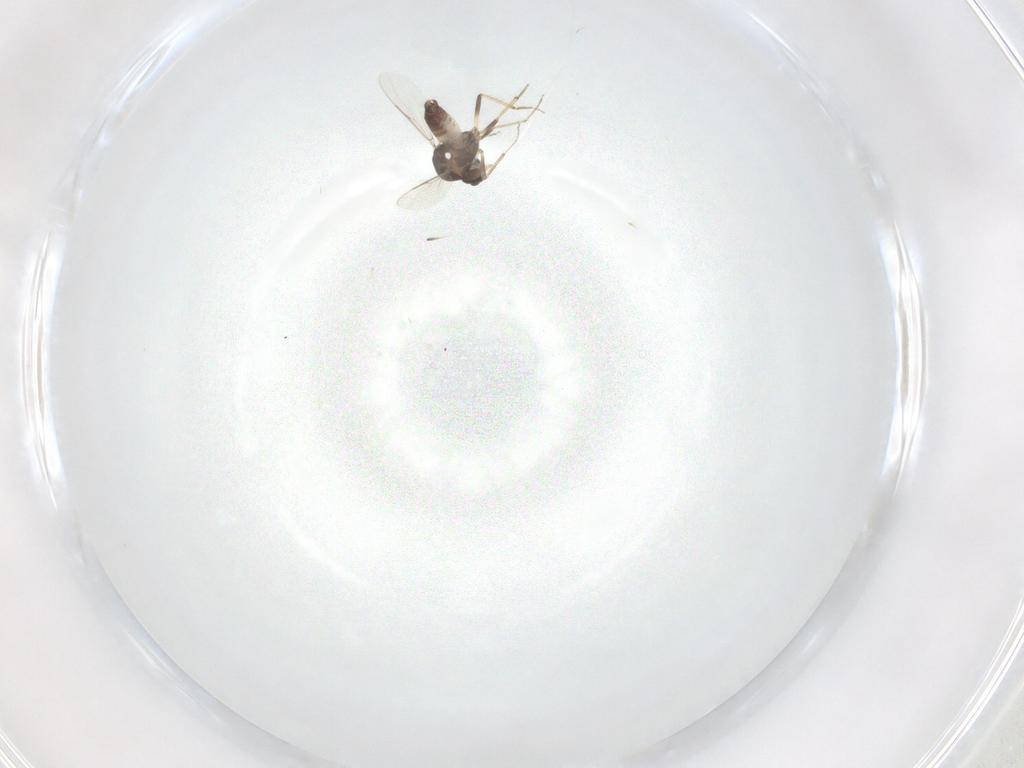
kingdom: Animalia
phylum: Arthropoda
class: Insecta
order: Diptera
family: Ceratopogonidae
